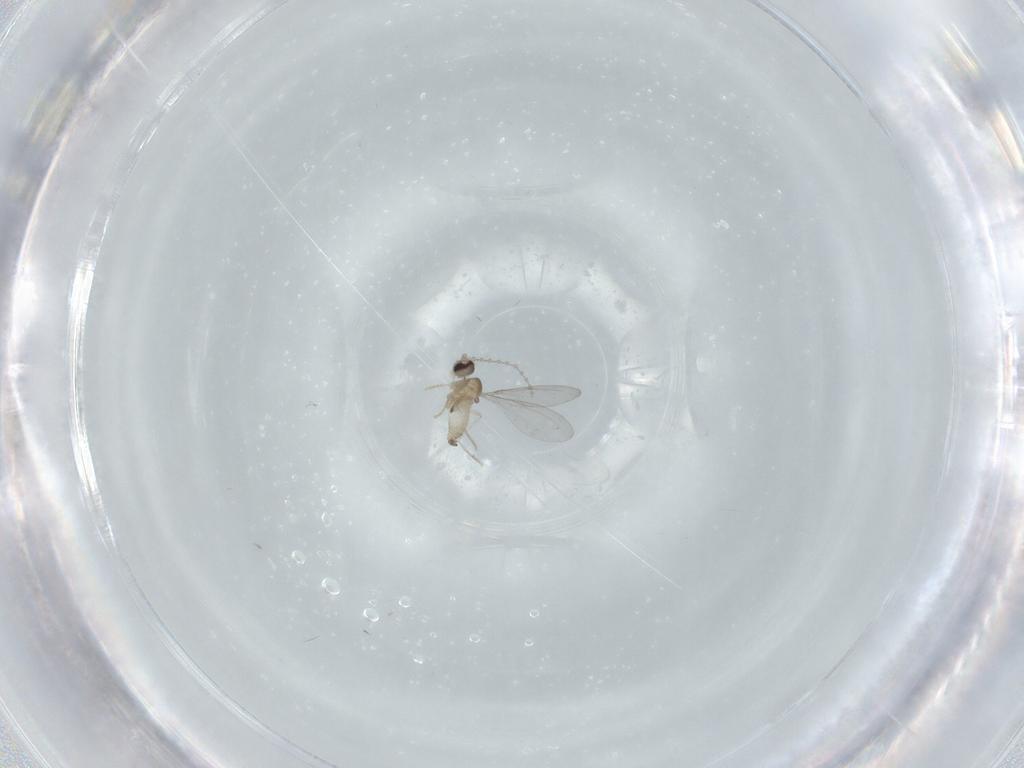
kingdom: Animalia
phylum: Arthropoda
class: Insecta
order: Diptera
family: Cecidomyiidae
